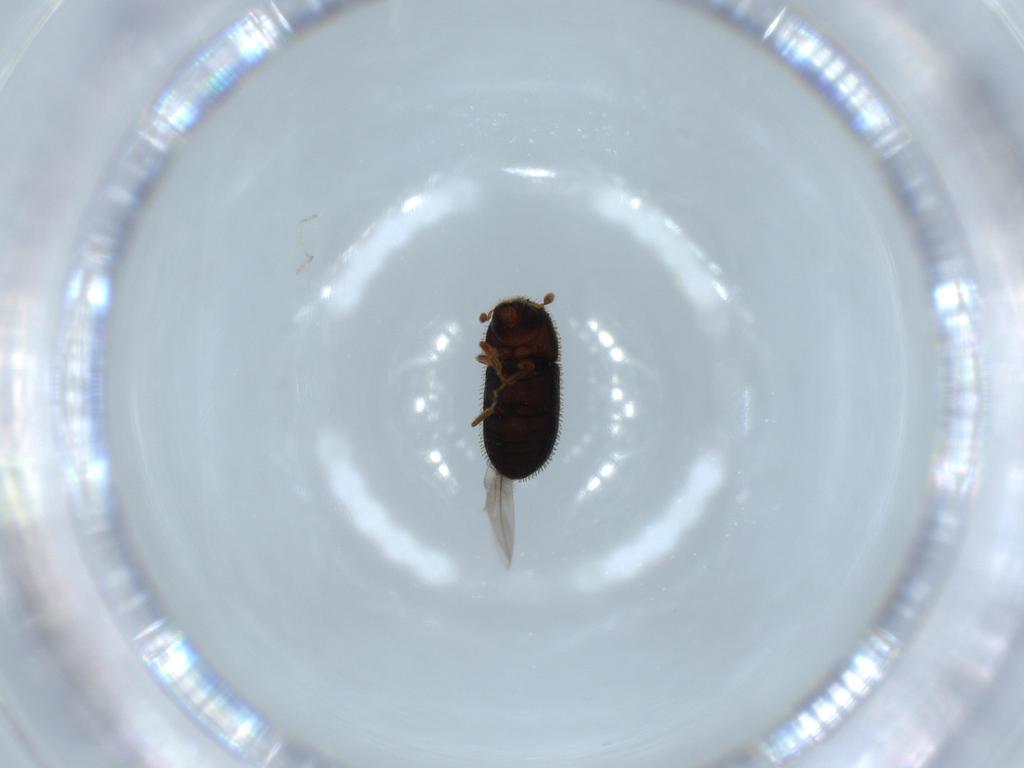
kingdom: Animalia
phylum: Arthropoda
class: Insecta
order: Coleoptera
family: Curculionidae
